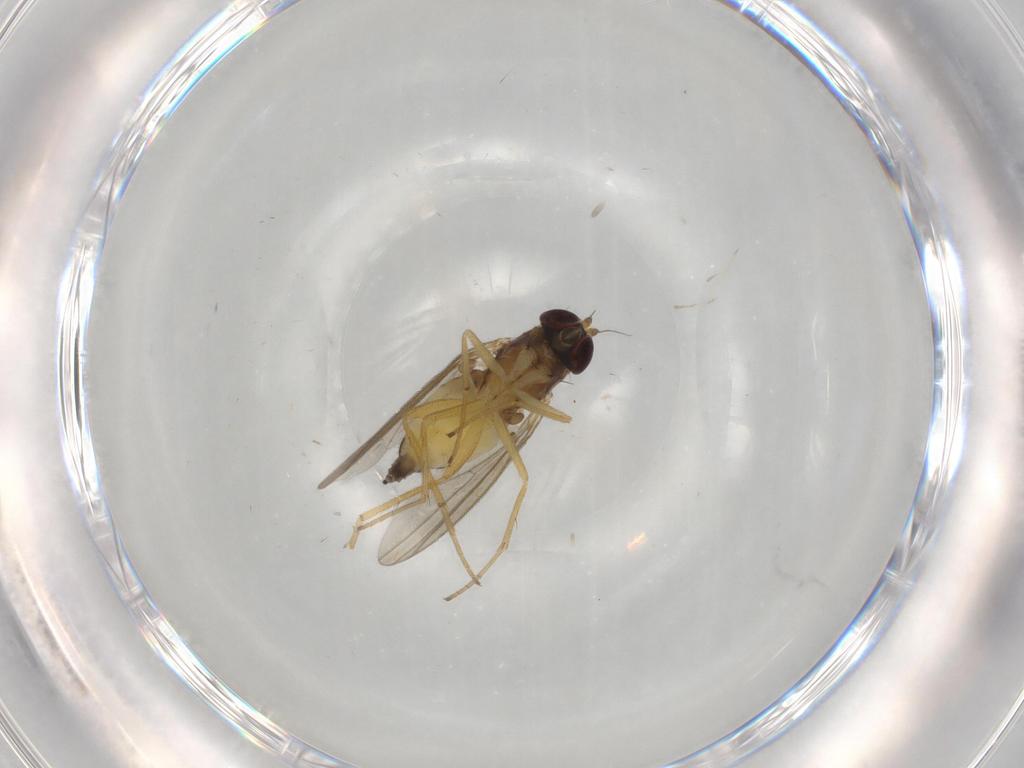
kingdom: Animalia
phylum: Arthropoda
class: Insecta
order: Diptera
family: Dolichopodidae
